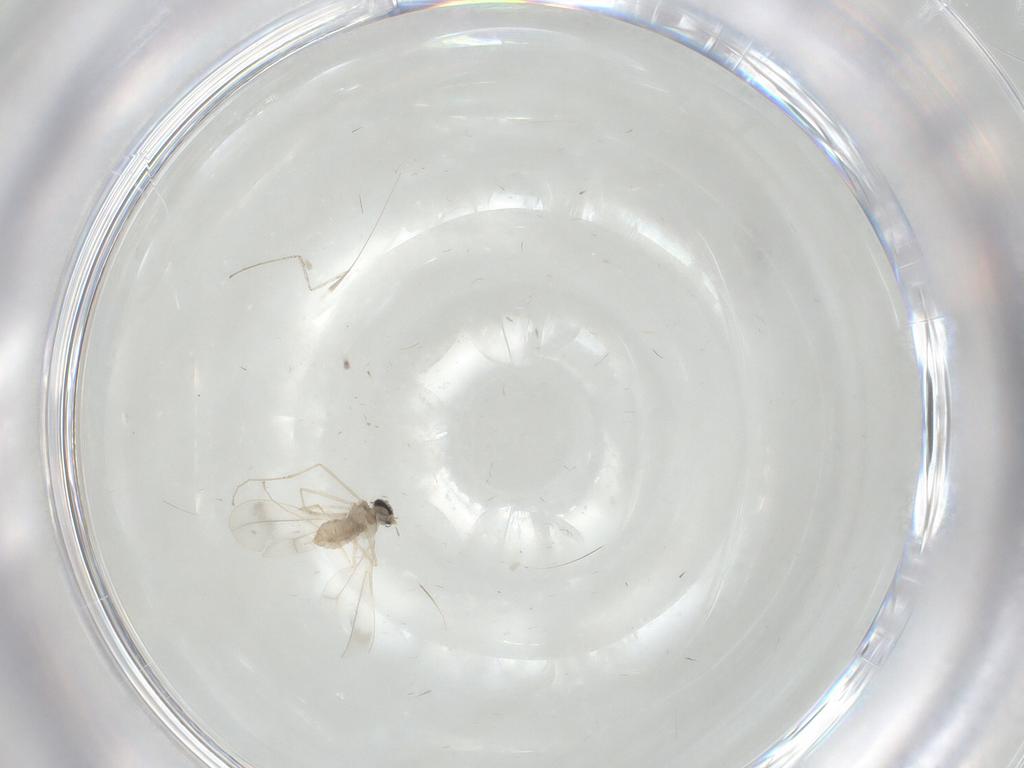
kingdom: Animalia
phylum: Arthropoda
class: Insecta
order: Diptera
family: Cecidomyiidae
